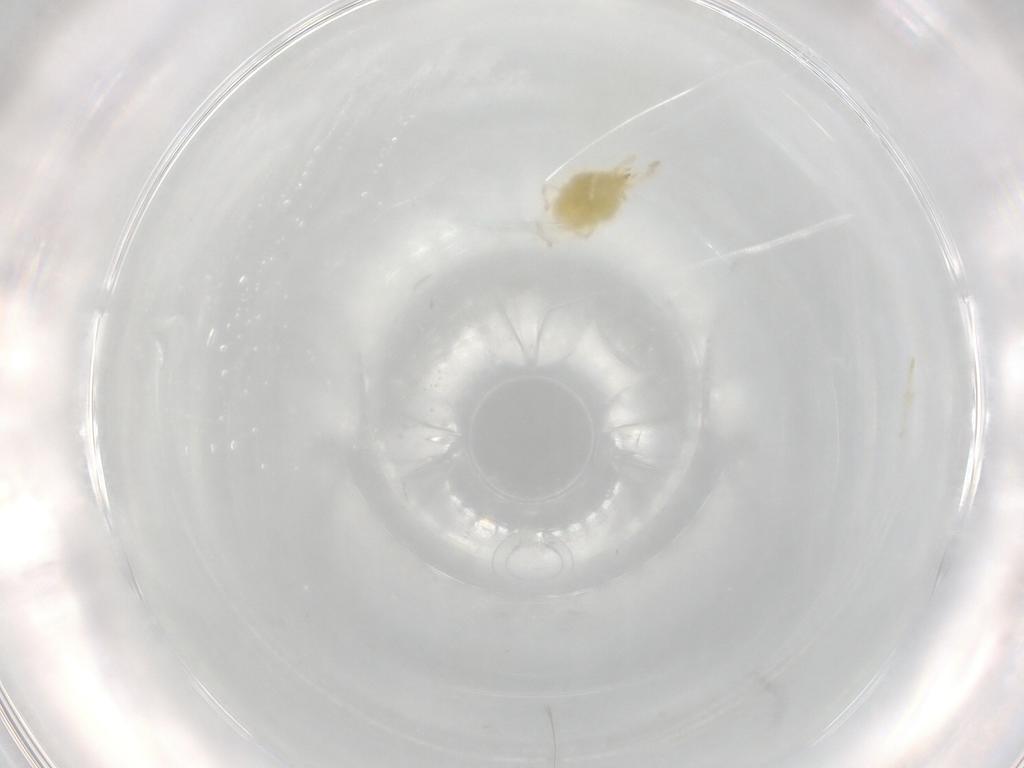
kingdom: Animalia
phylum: Arthropoda
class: Arachnida
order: Trombidiformes
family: Erythraeidae
